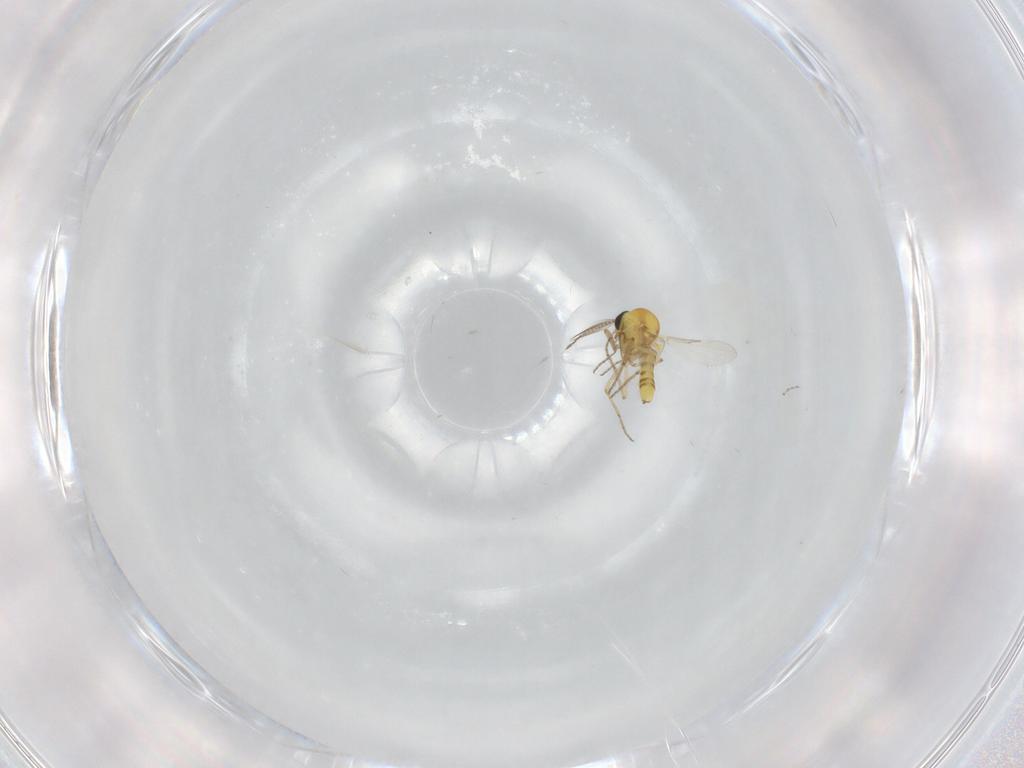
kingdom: Animalia
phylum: Arthropoda
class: Insecta
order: Diptera
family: Ceratopogonidae
